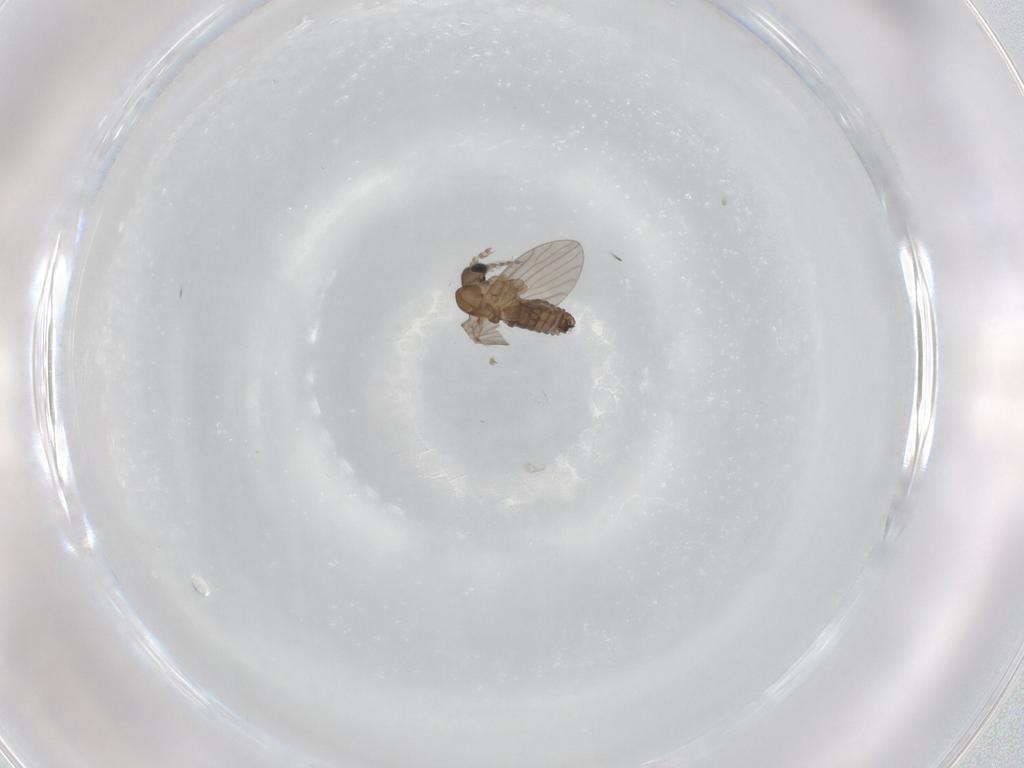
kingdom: Animalia
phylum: Arthropoda
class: Insecta
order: Diptera
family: Psychodidae
